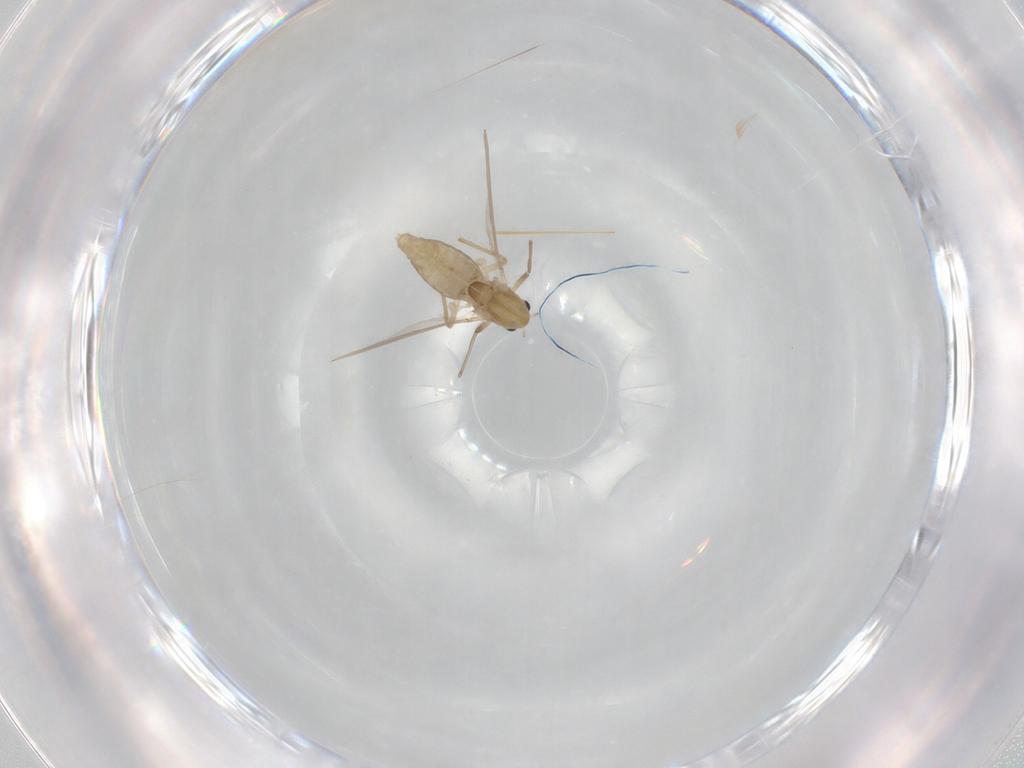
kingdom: Animalia
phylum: Arthropoda
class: Insecta
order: Diptera
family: Chironomidae
